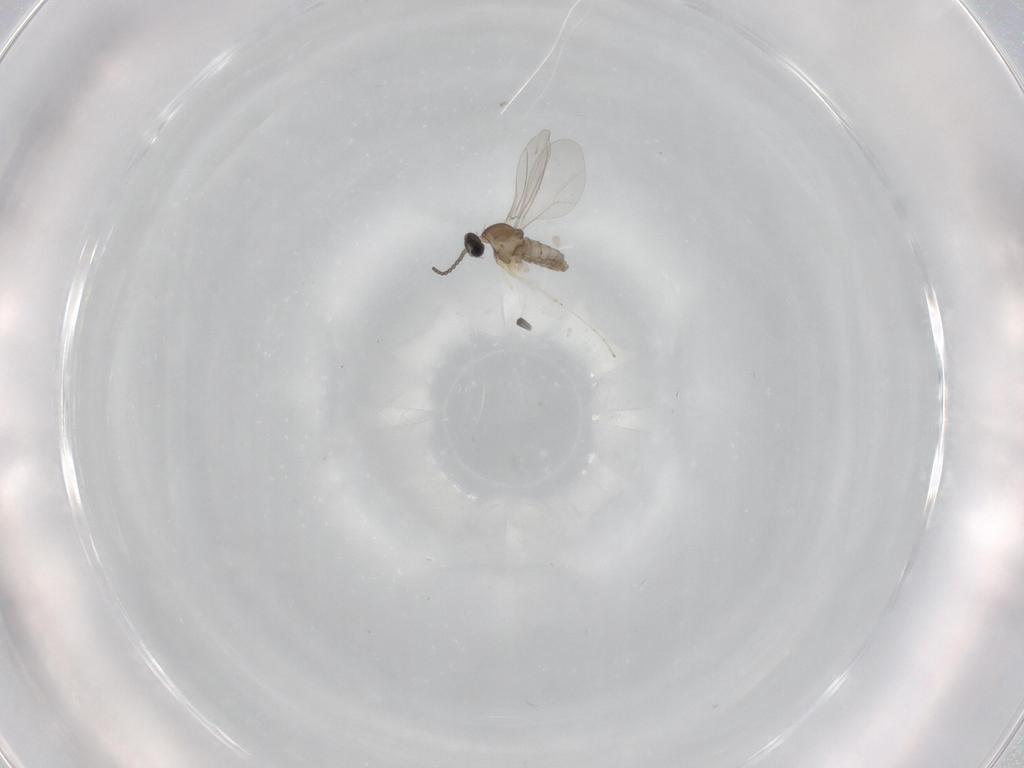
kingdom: Animalia
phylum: Arthropoda
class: Insecta
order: Diptera
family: Cecidomyiidae
